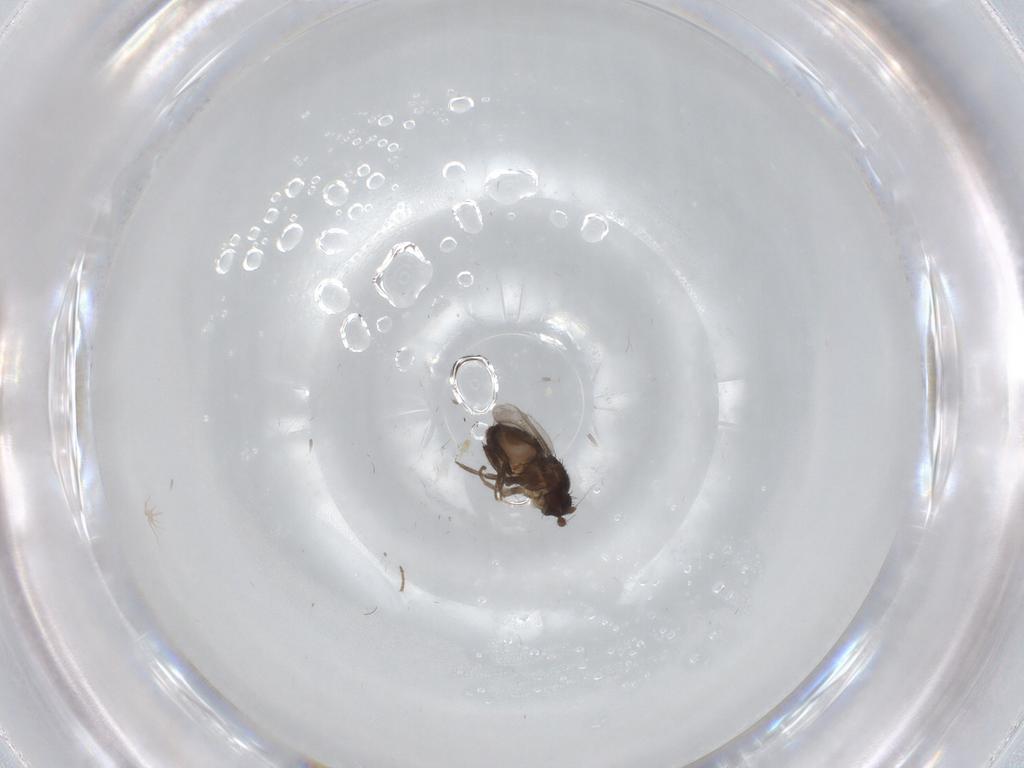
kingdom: Animalia
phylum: Arthropoda
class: Insecta
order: Diptera
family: Sphaeroceridae
